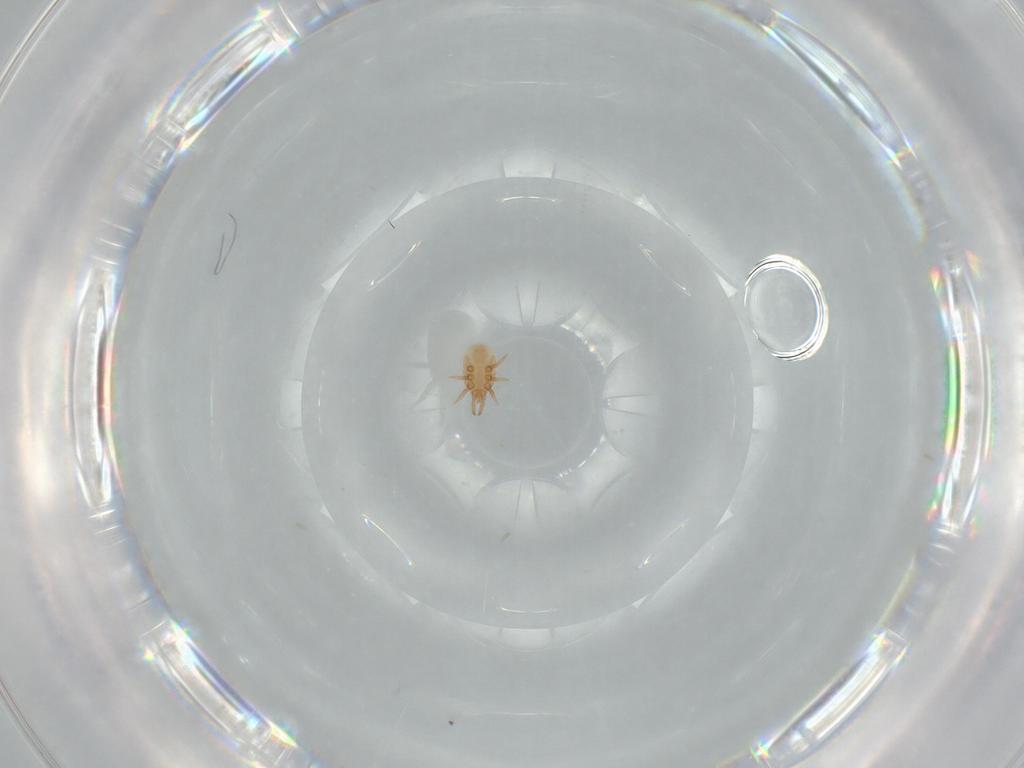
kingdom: Animalia
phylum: Arthropoda
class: Arachnida
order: Mesostigmata
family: Dinychidae
